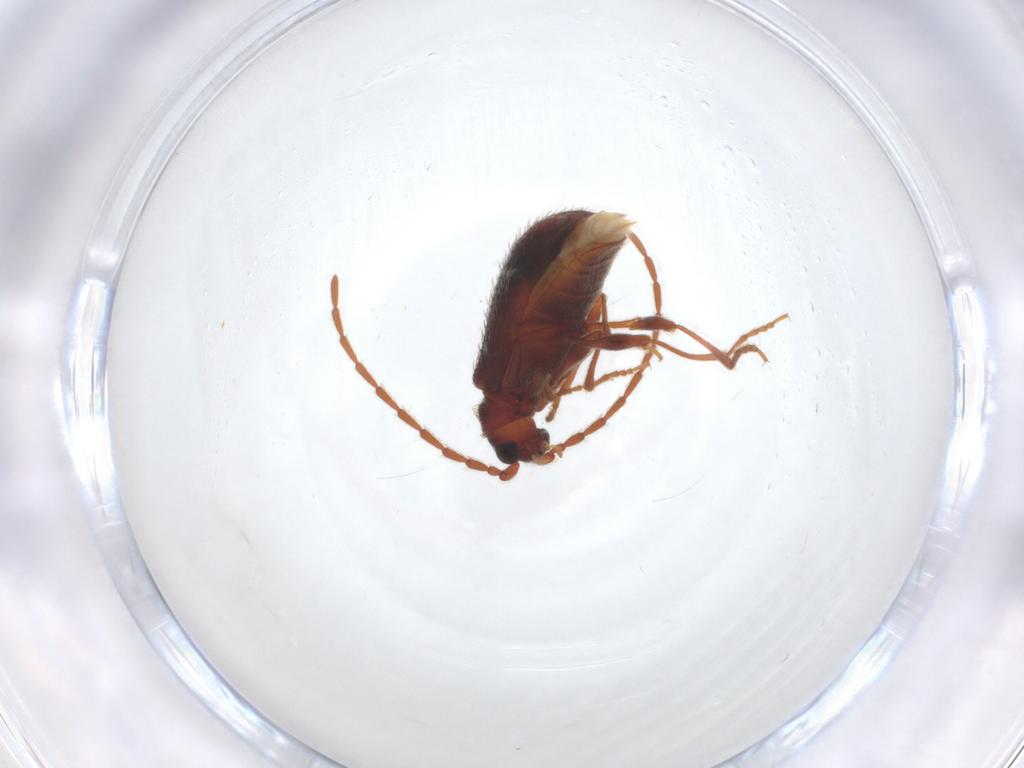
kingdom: Animalia
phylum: Arthropoda
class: Insecta
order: Coleoptera
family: Ptinidae
